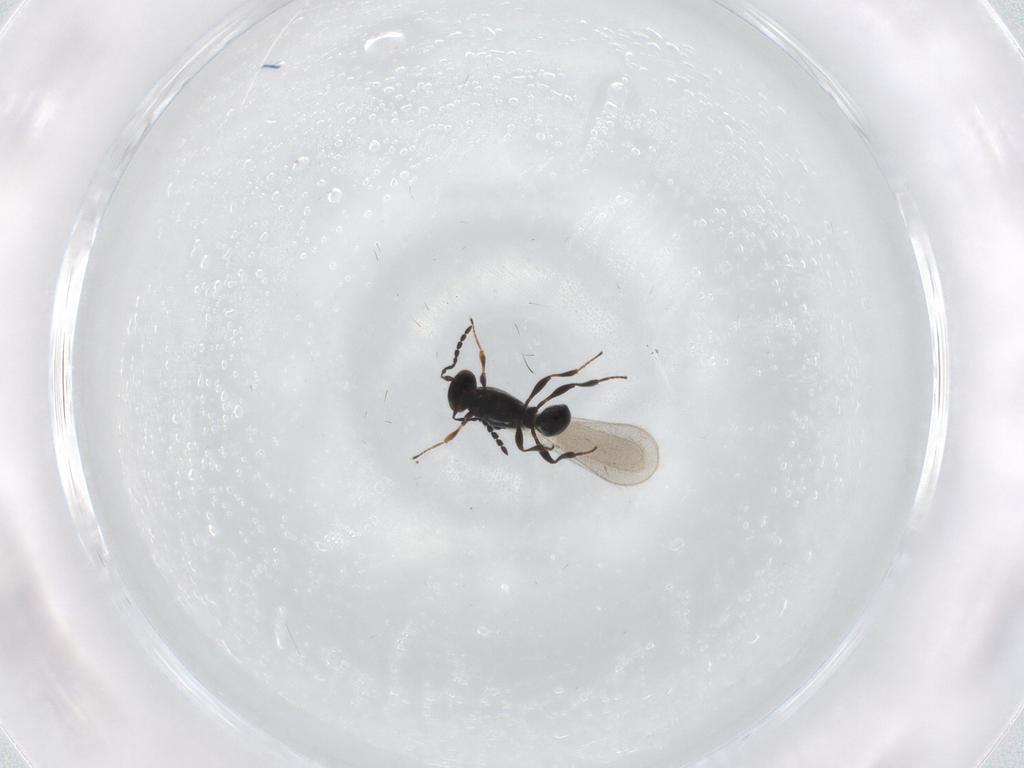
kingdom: Animalia
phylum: Arthropoda
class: Insecta
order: Hymenoptera
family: Platygastridae
